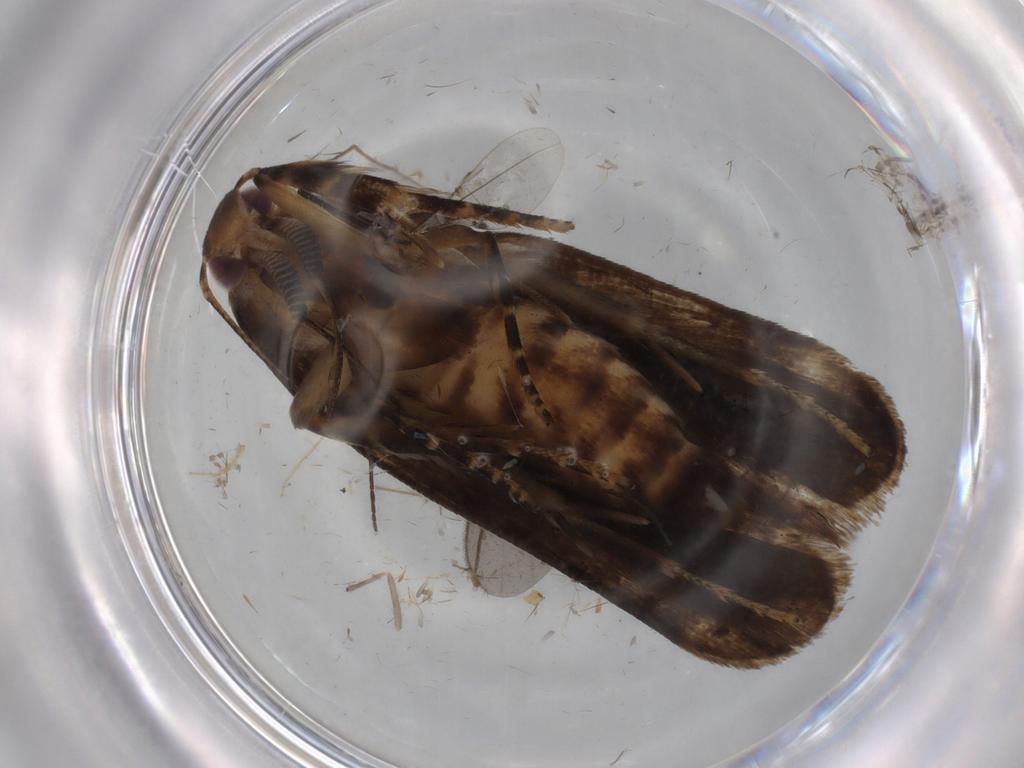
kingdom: Animalia
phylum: Arthropoda
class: Insecta
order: Lepidoptera
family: Gelechiidae
